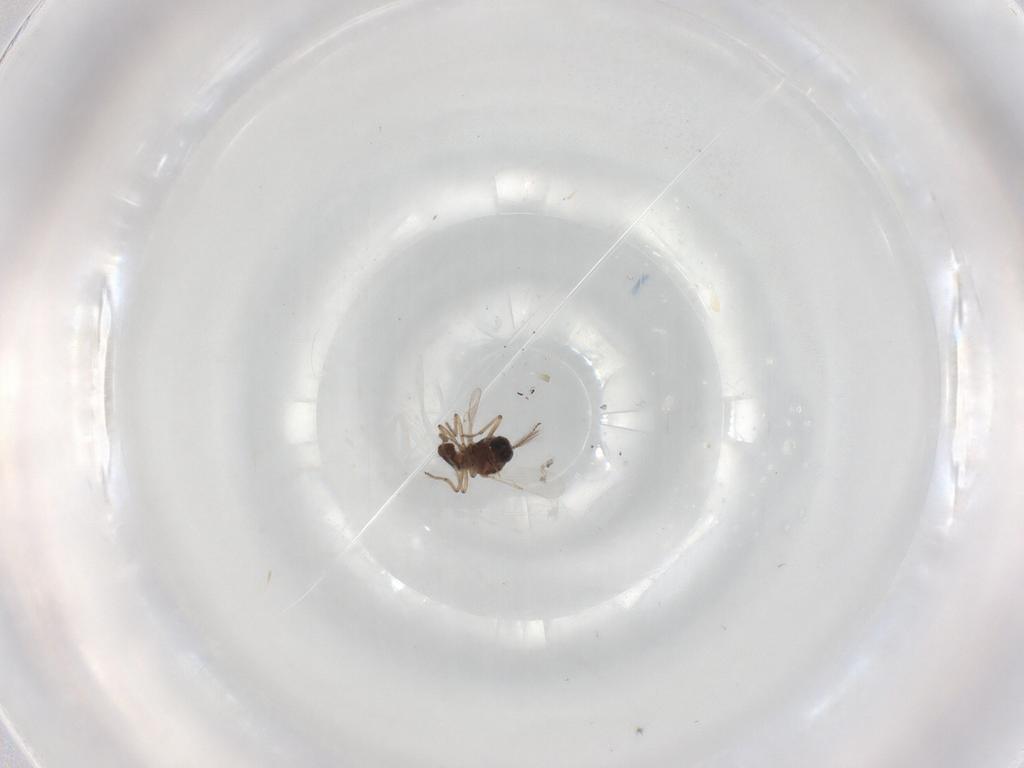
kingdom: Animalia
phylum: Arthropoda
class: Insecta
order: Diptera
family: Ceratopogonidae
